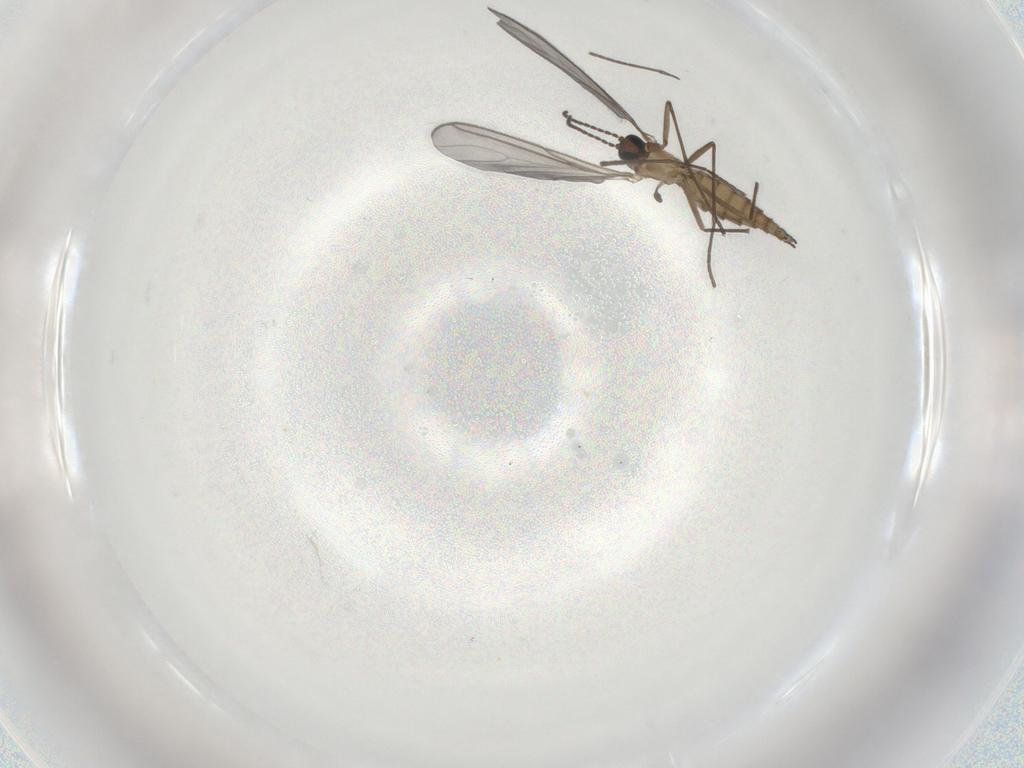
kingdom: Animalia
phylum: Arthropoda
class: Insecta
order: Diptera
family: Sciaridae
